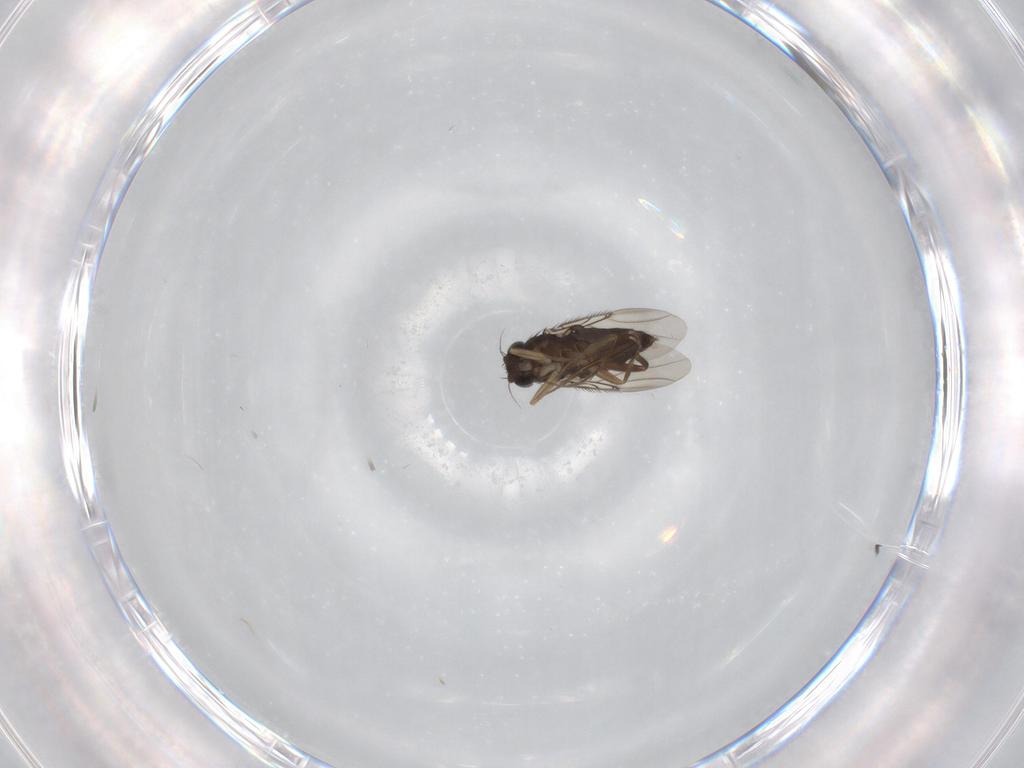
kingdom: Animalia
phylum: Arthropoda
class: Insecta
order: Diptera
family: Phoridae
